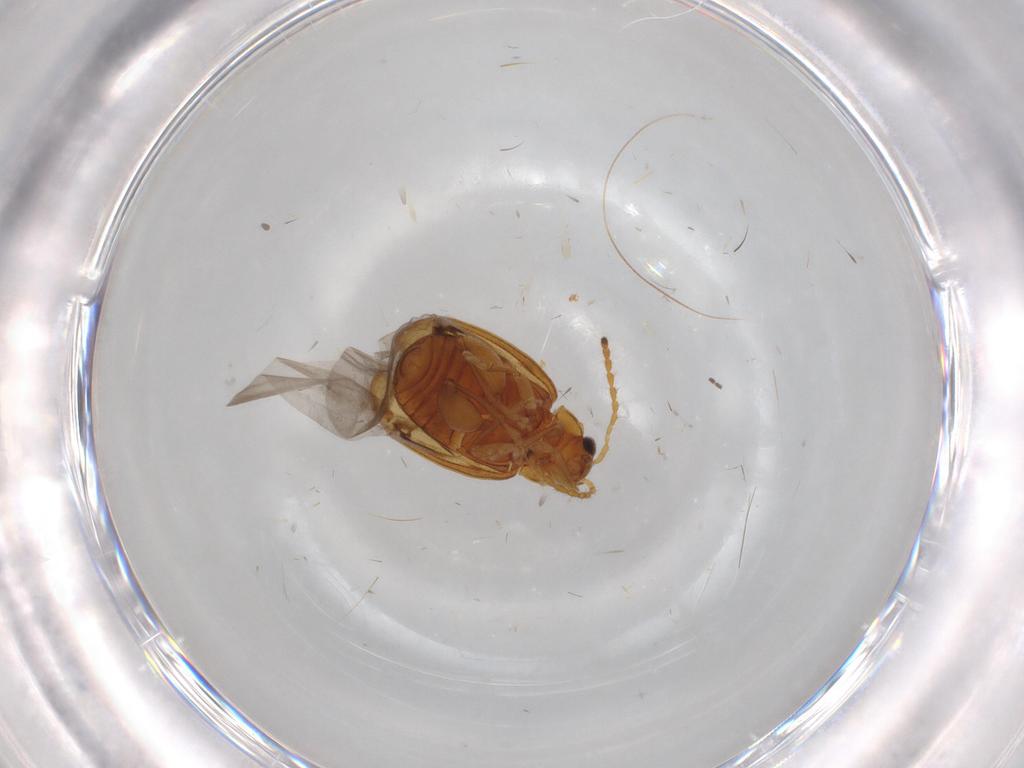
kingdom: Animalia
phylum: Arthropoda
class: Insecta
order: Coleoptera
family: Chrysomelidae
